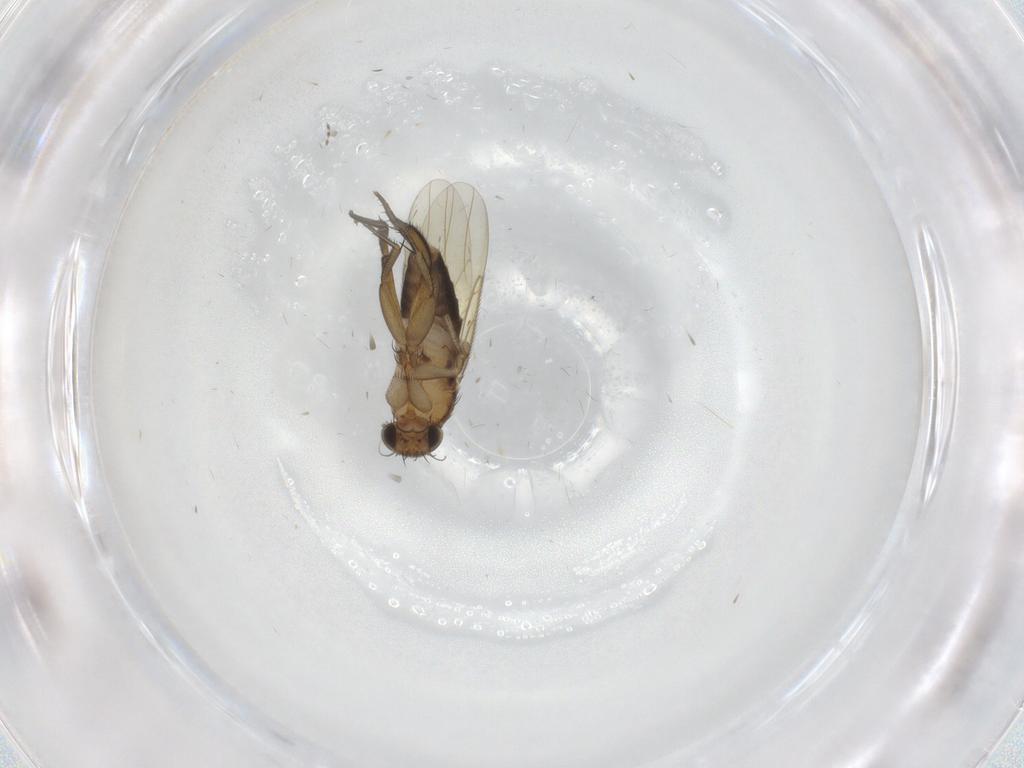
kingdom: Animalia
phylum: Arthropoda
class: Insecta
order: Diptera
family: Phoridae
